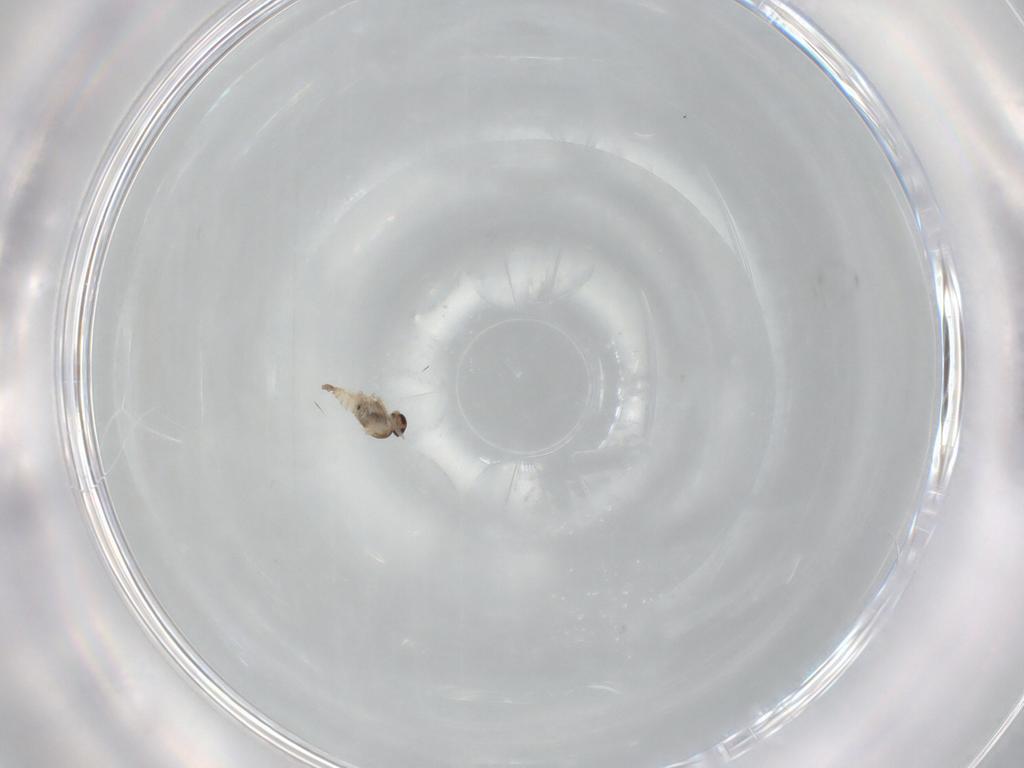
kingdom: Animalia
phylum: Arthropoda
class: Insecta
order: Diptera
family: Cecidomyiidae
